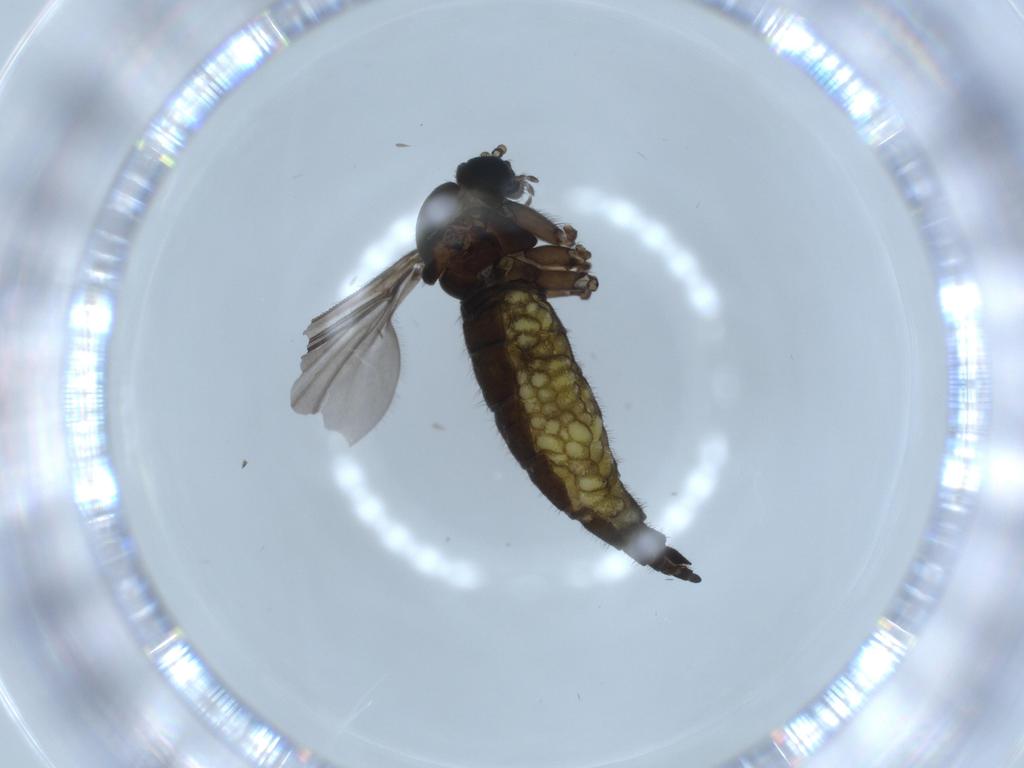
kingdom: Animalia
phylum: Arthropoda
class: Insecta
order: Diptera
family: Sciaridae
